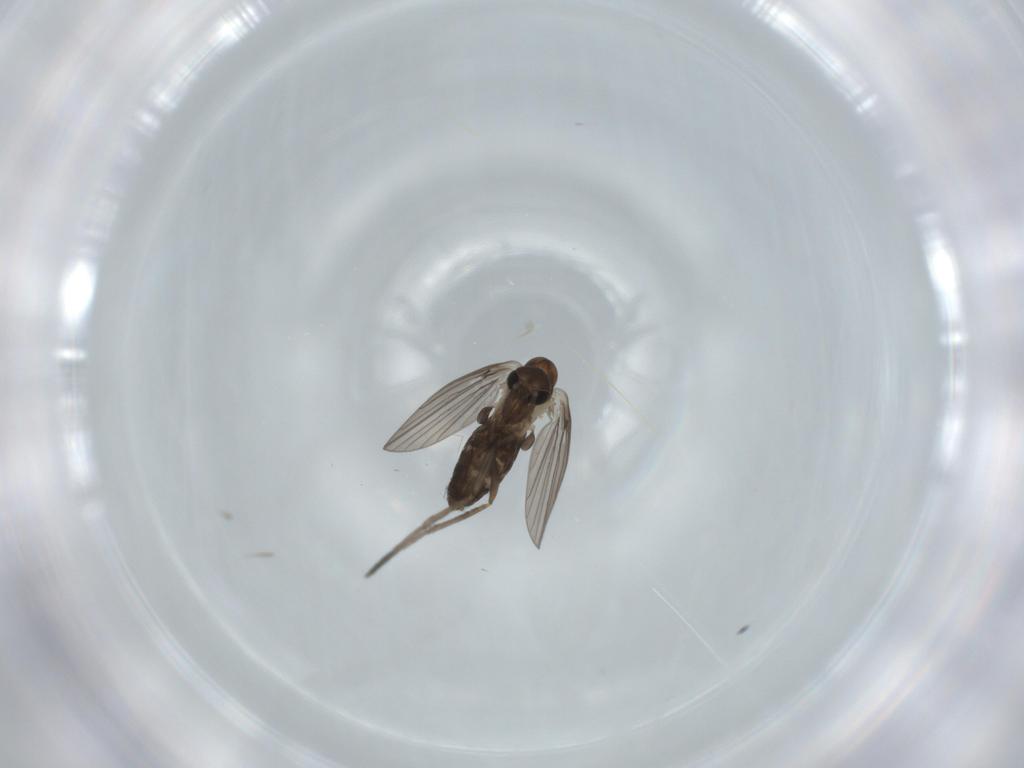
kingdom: Animalia
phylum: Arthropoda
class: Insecta
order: Diptera
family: Psychodidae
